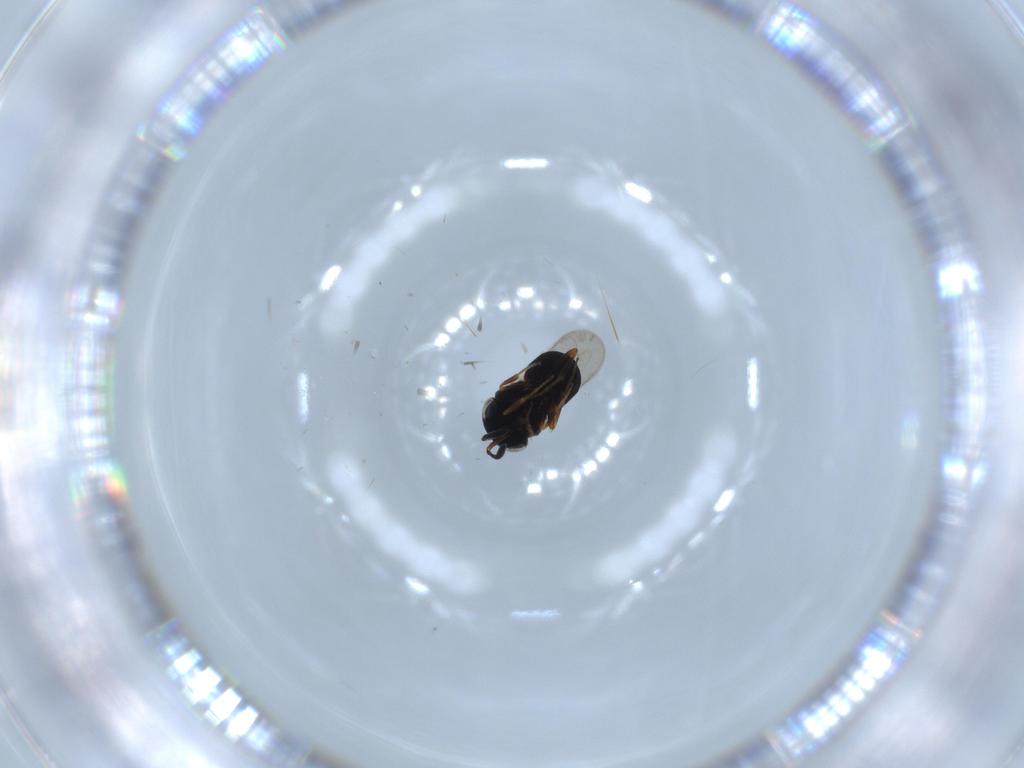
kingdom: Animalia
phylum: Arthropoda
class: Insecta
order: Hymenoptera
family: Scelionidae
